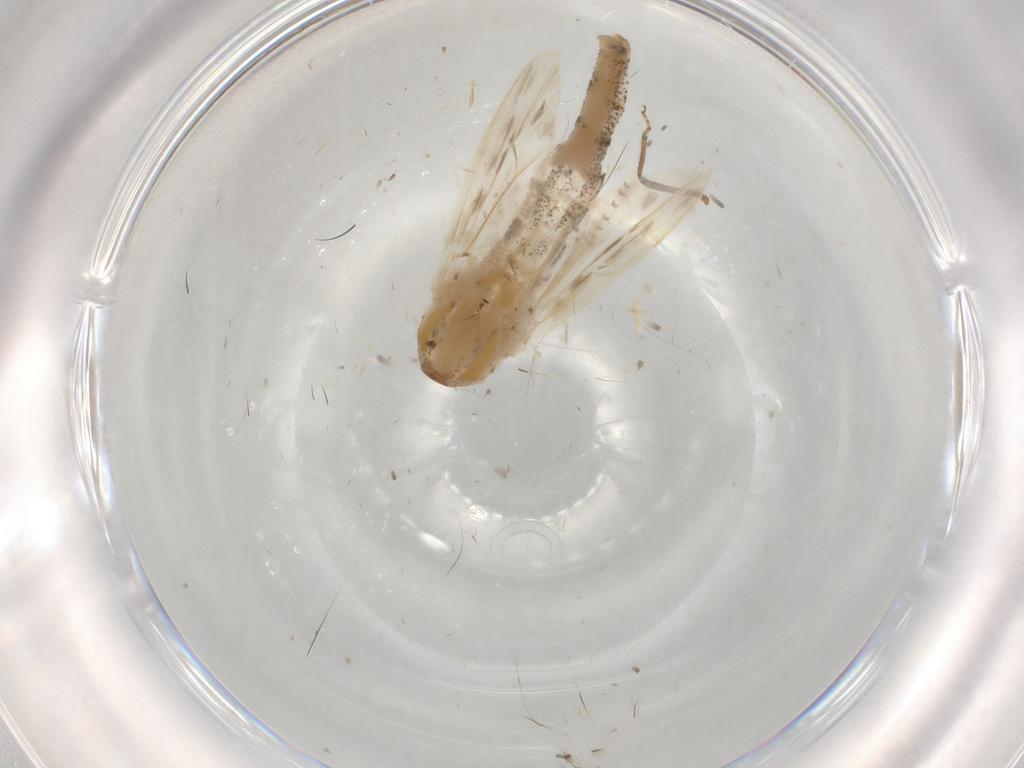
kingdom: Animalia
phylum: Arthropoda
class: Insecta
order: Diptera
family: Chaoboridae
